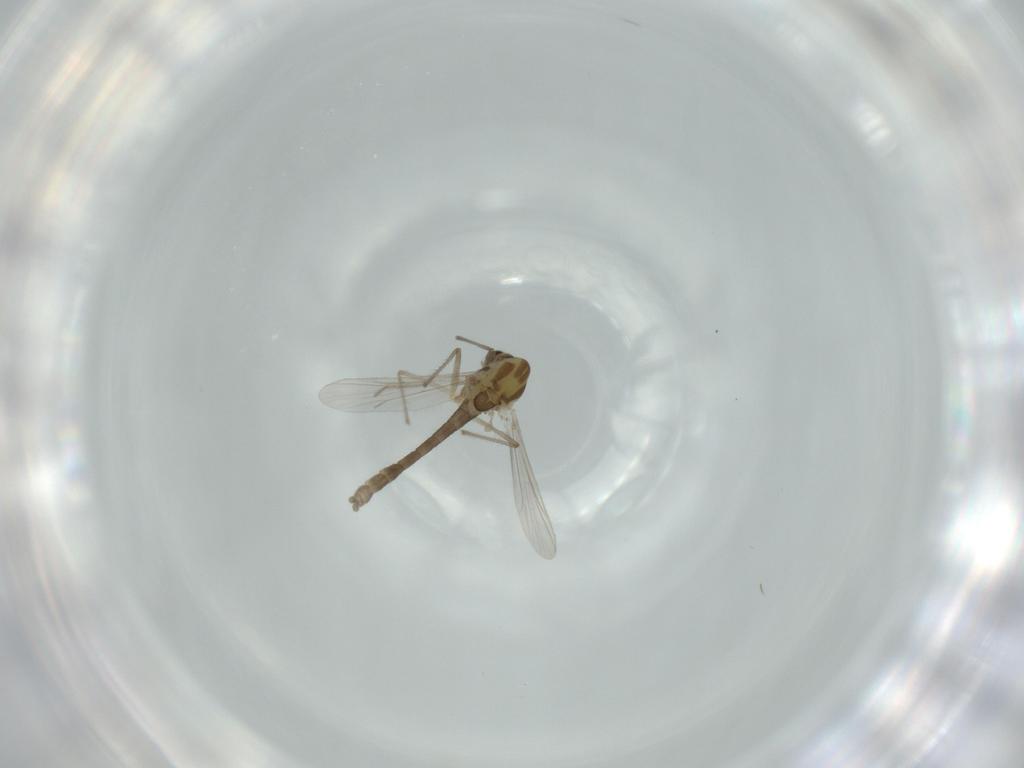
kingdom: Animalia
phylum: Arthropoda
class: Insecta
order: Diptera
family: Chironomidae
